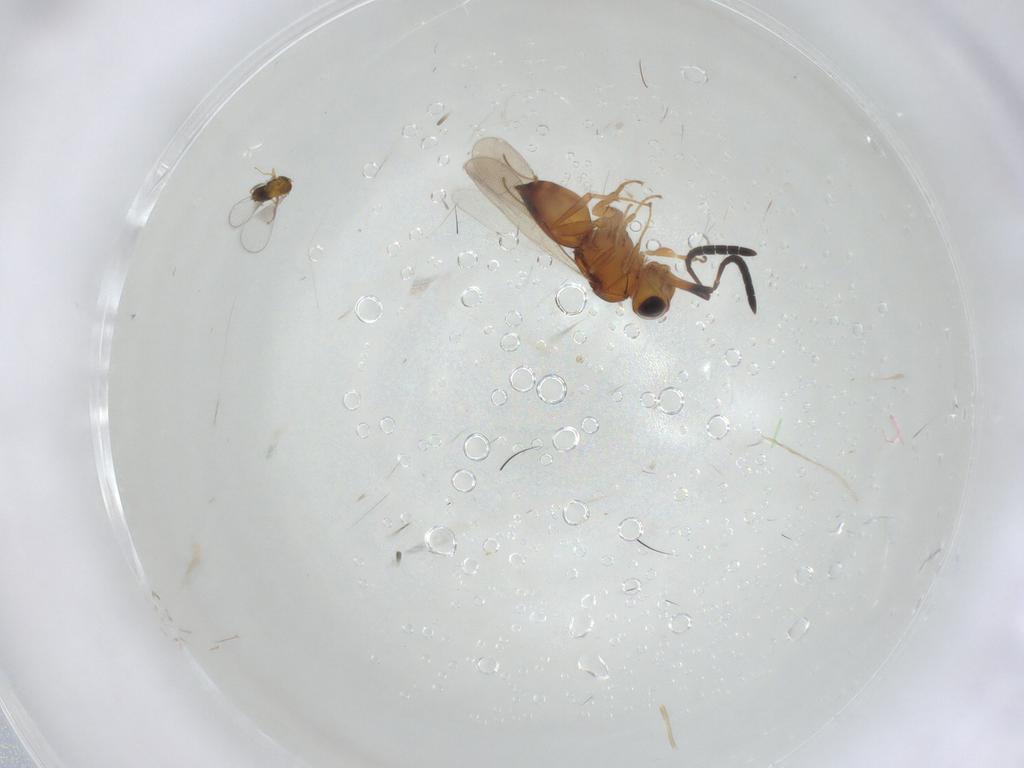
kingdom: Animalia
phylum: Arthropoda
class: Insecta
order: Hymenoptera
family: Trichogrammatidae
